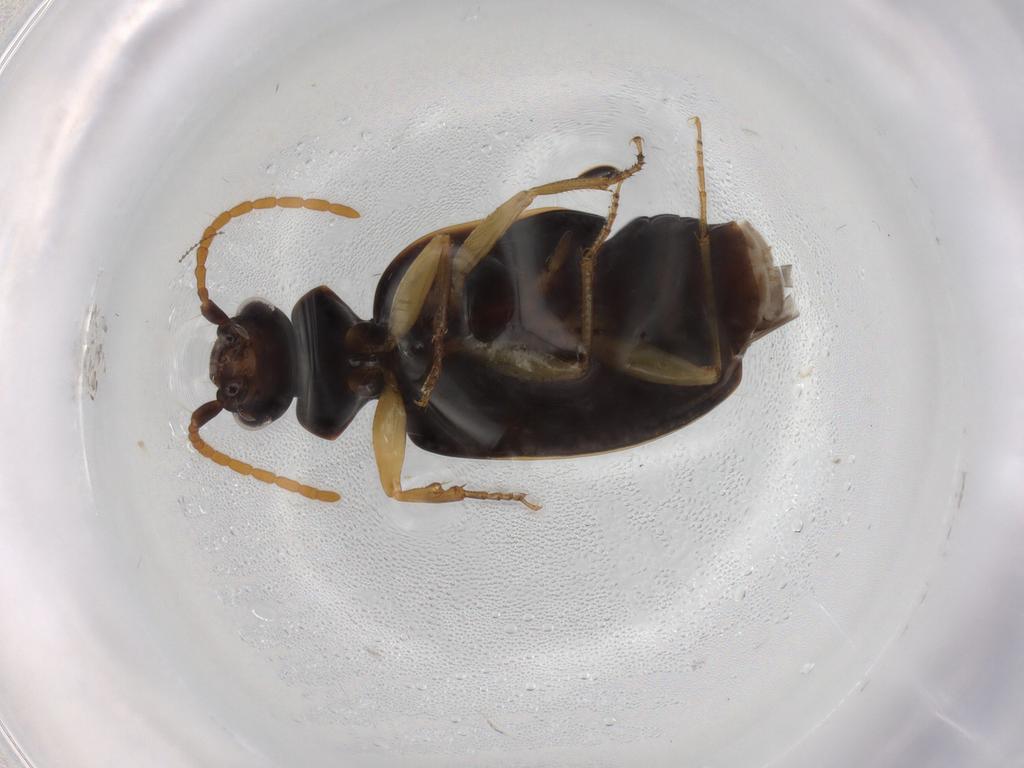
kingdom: Animalia
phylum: Arthropoda
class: Insecta
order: Coleoptera
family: Carabidae
